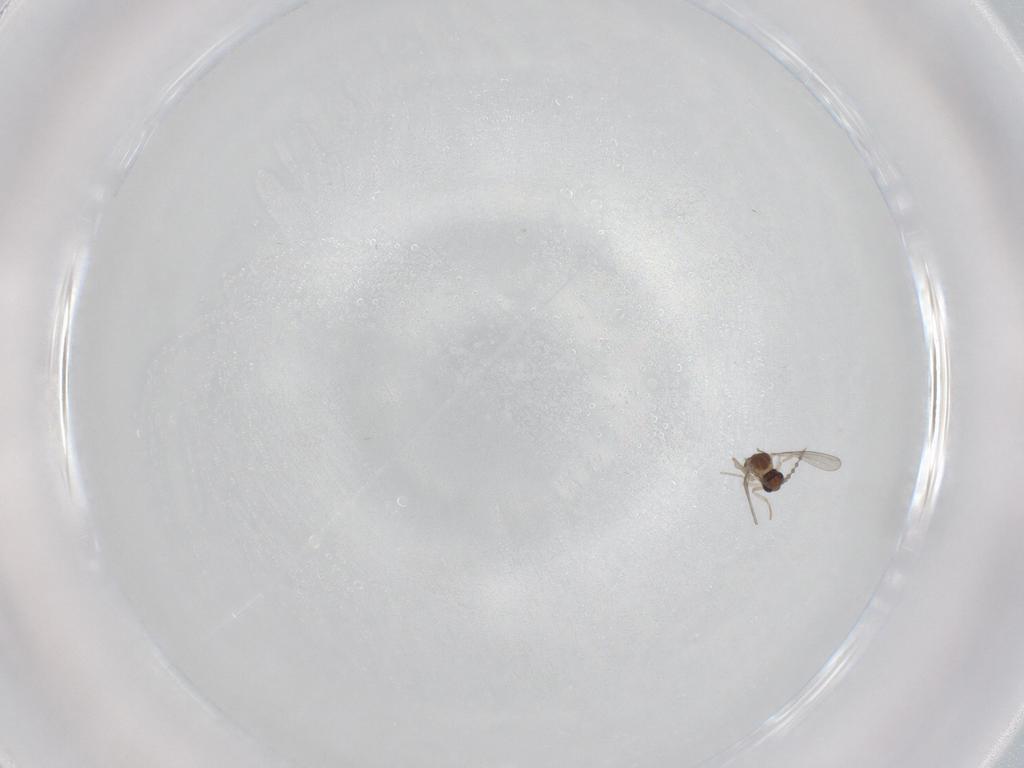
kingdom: Animalia
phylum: Arthropoda
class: Insecta
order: Diptera
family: Cecidomyiidae
